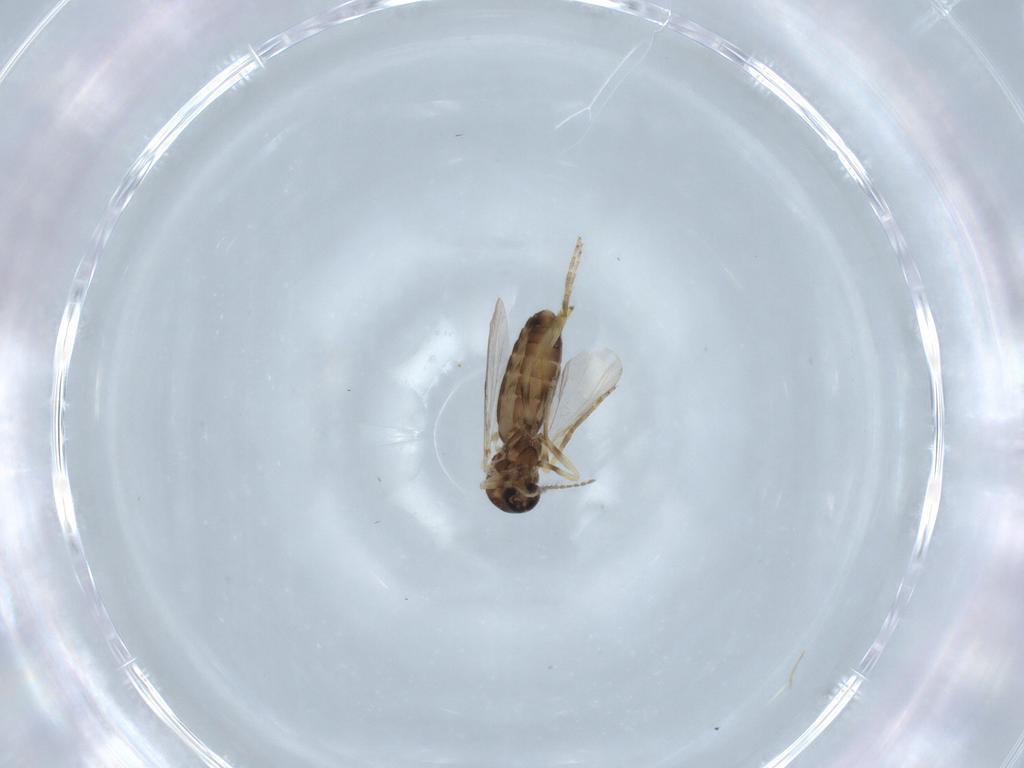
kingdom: Animalia
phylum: Arthropoda
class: Insecta
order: Diptera
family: Ceratopogonidae
